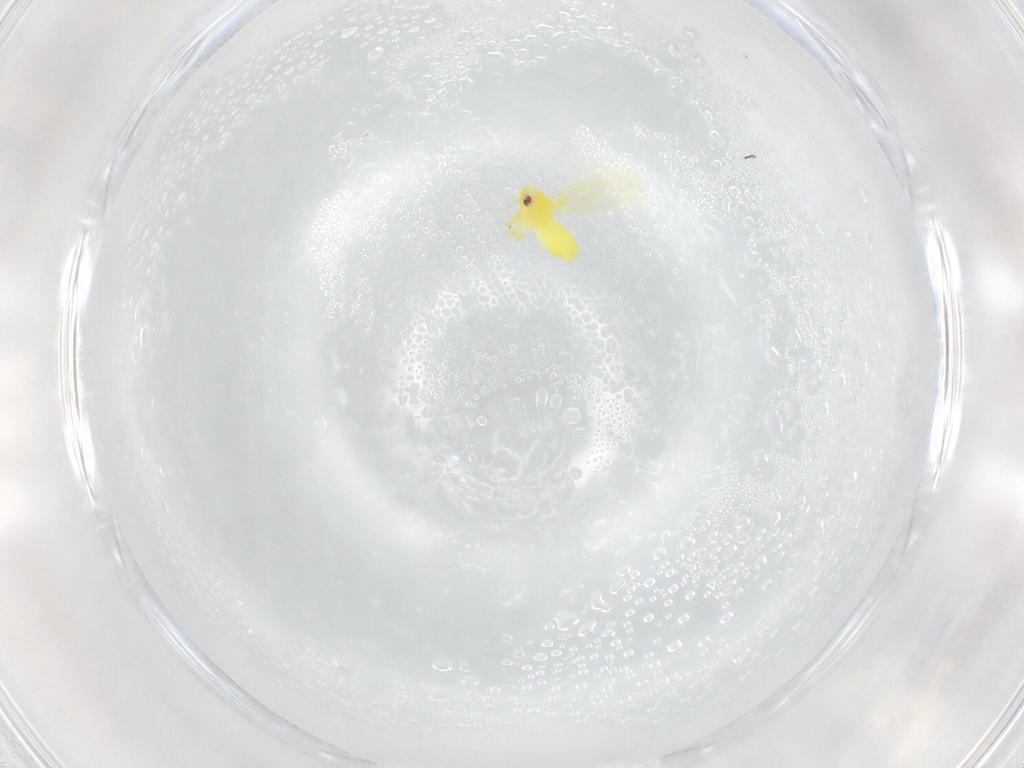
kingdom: Animalia
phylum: Arthropoda
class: Insecta
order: Hemiptera
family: Aleyrodidae
